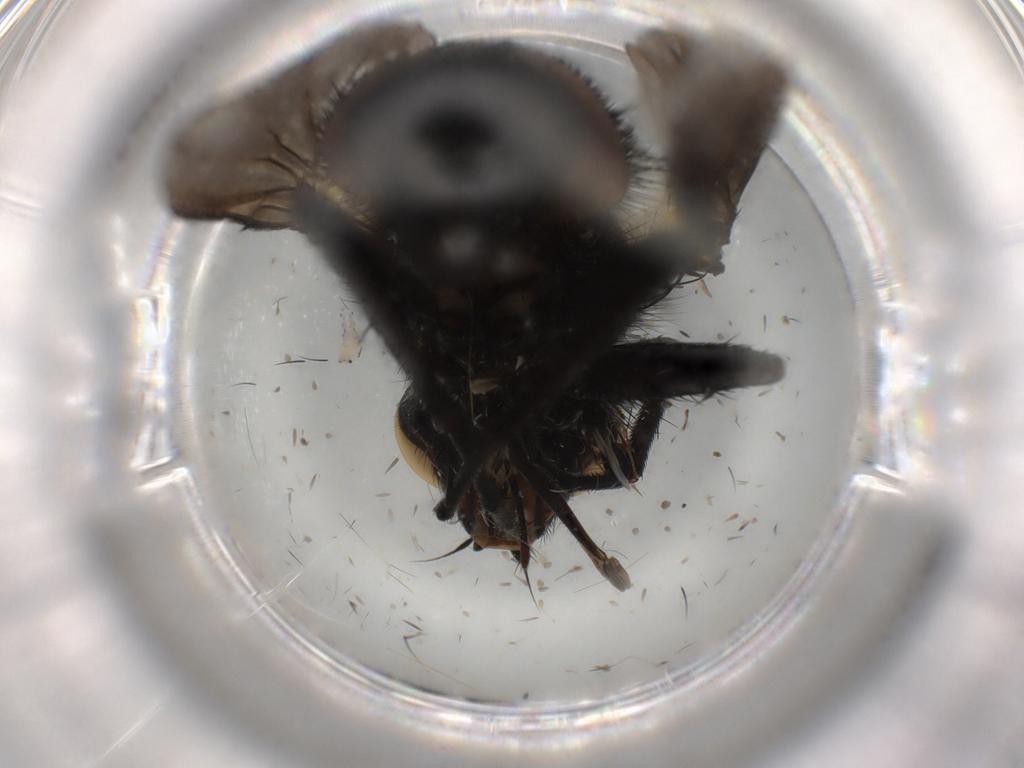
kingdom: Animalia
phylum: Arthropoda
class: Insecta
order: Diptera
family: Tachinidae
